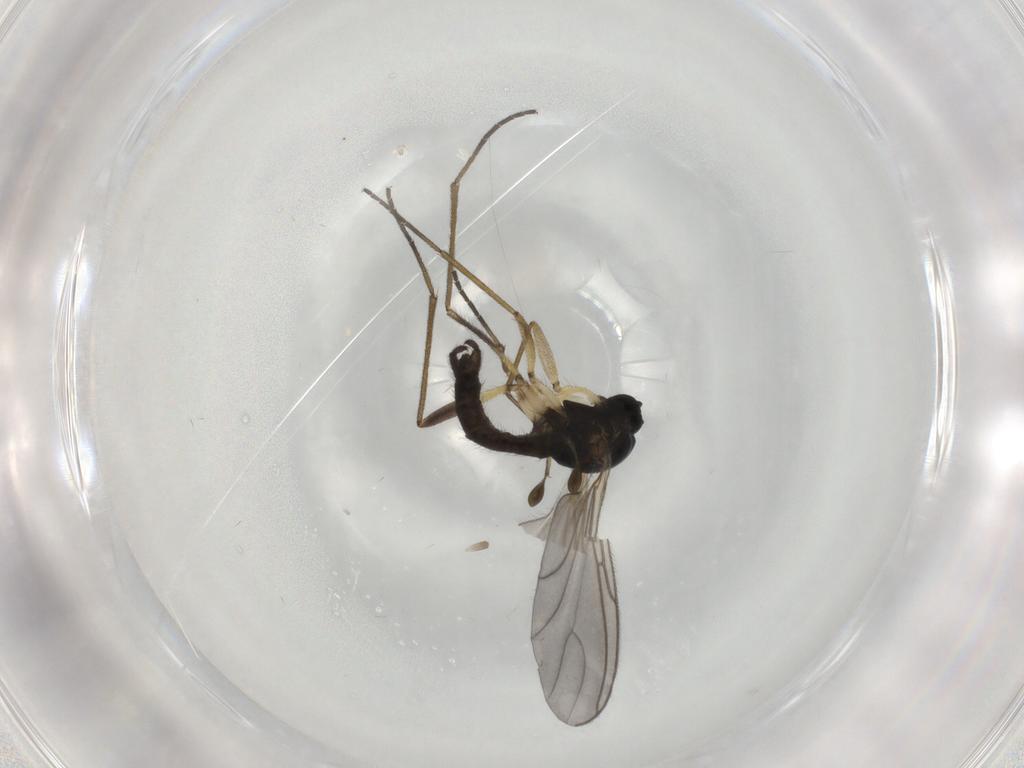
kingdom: Animalia
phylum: Arthropoda
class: Insecta
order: Diptera
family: Sciaridae
